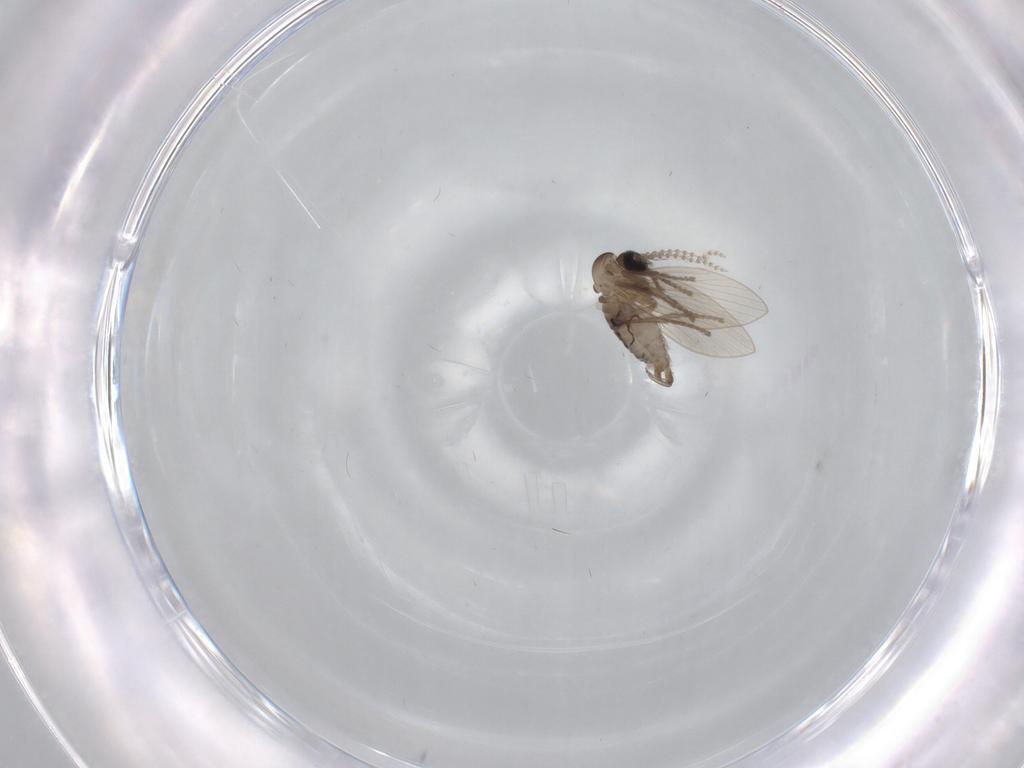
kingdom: Animalia
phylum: Arthropoda
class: Insecta
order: Diptera
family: Psychodidae
